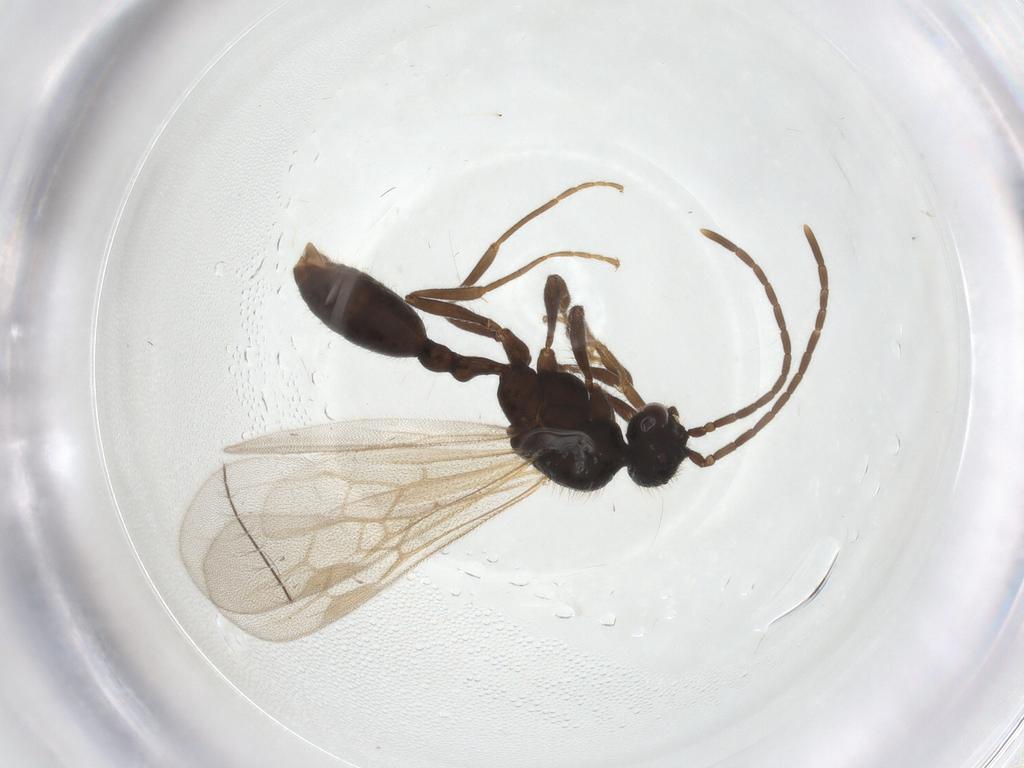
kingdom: Animalia
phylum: Arthropoda
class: Insecta
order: Hymenoptera
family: Formicidae
